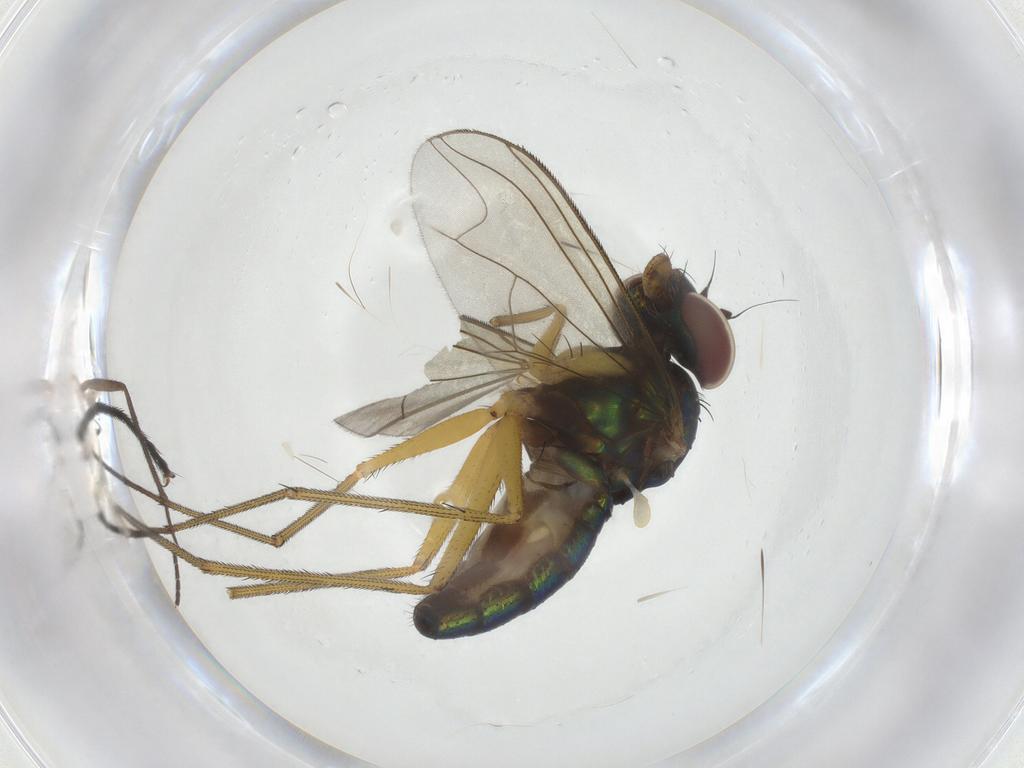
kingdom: Animalia
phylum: Arthropoda
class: Insecta
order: Diptera
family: Dolichopodidae
